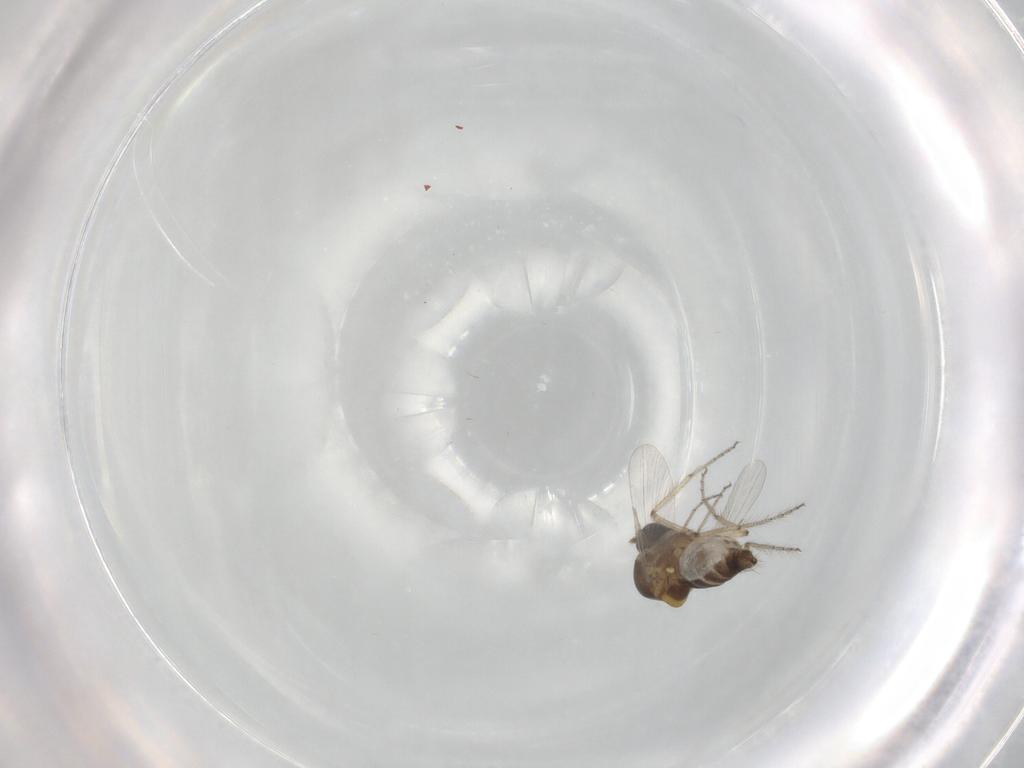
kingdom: Animalia
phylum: Arthropoda
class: Insecta
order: Diptera
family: Ceratopogonidae
